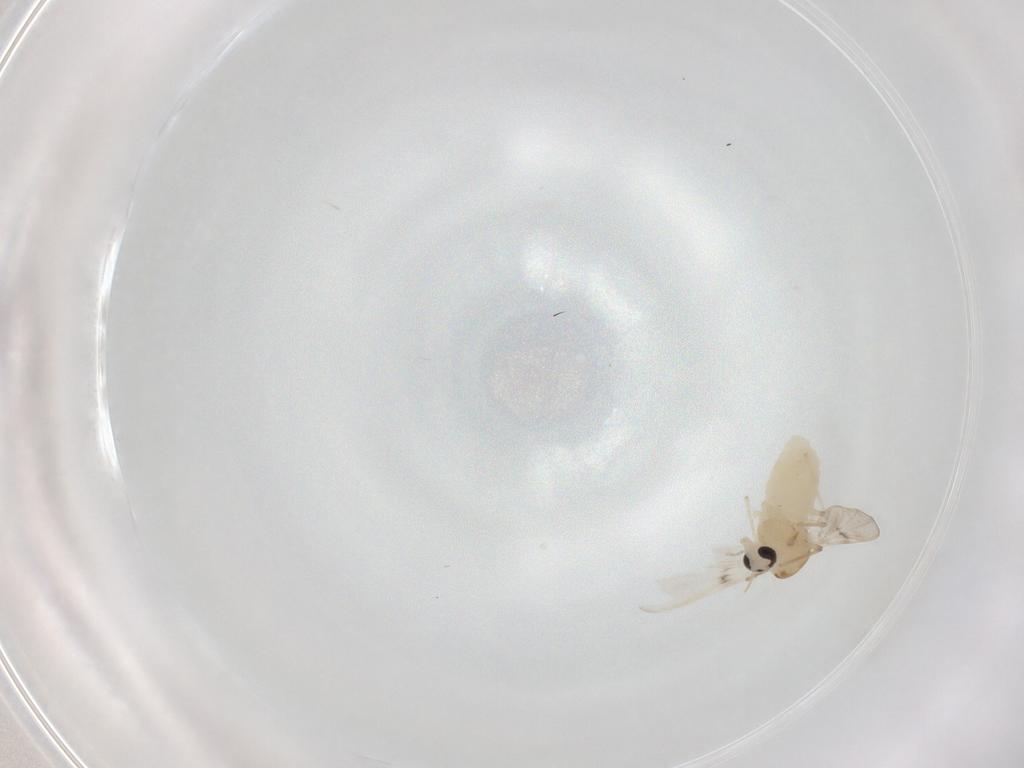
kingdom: Animalia
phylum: Arthropoda
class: Insecta
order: Diptera
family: Chironomidae
